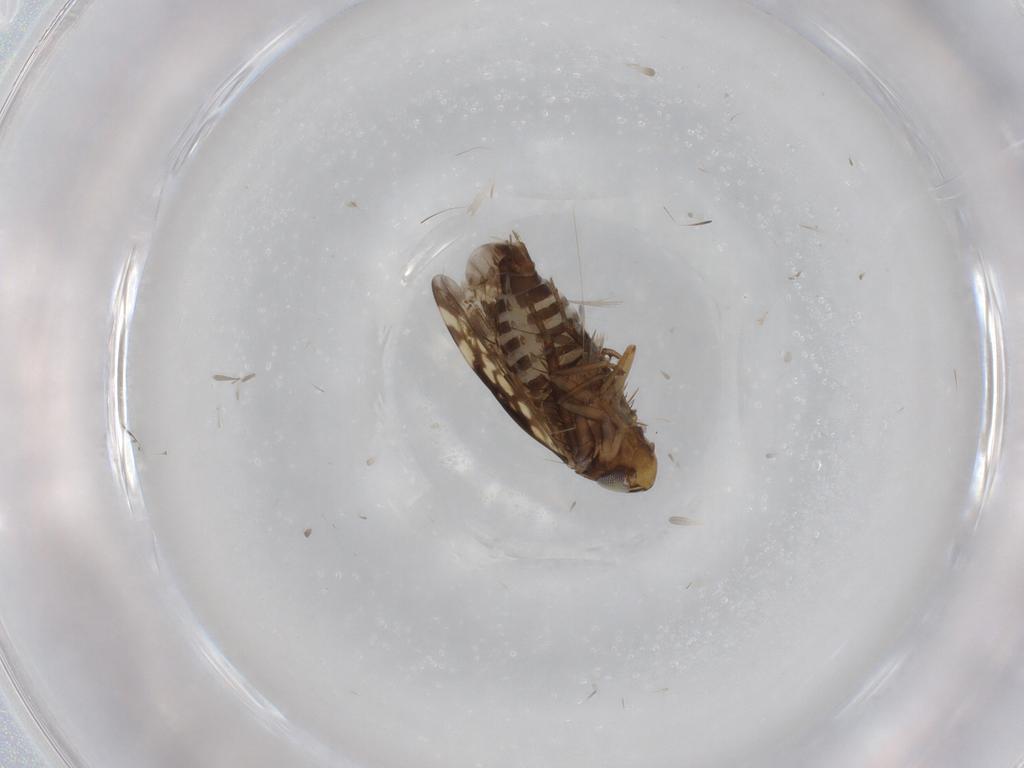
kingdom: Animalia
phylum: Arthropoda
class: Insecta
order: Hemiptera
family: Cicadellidae
